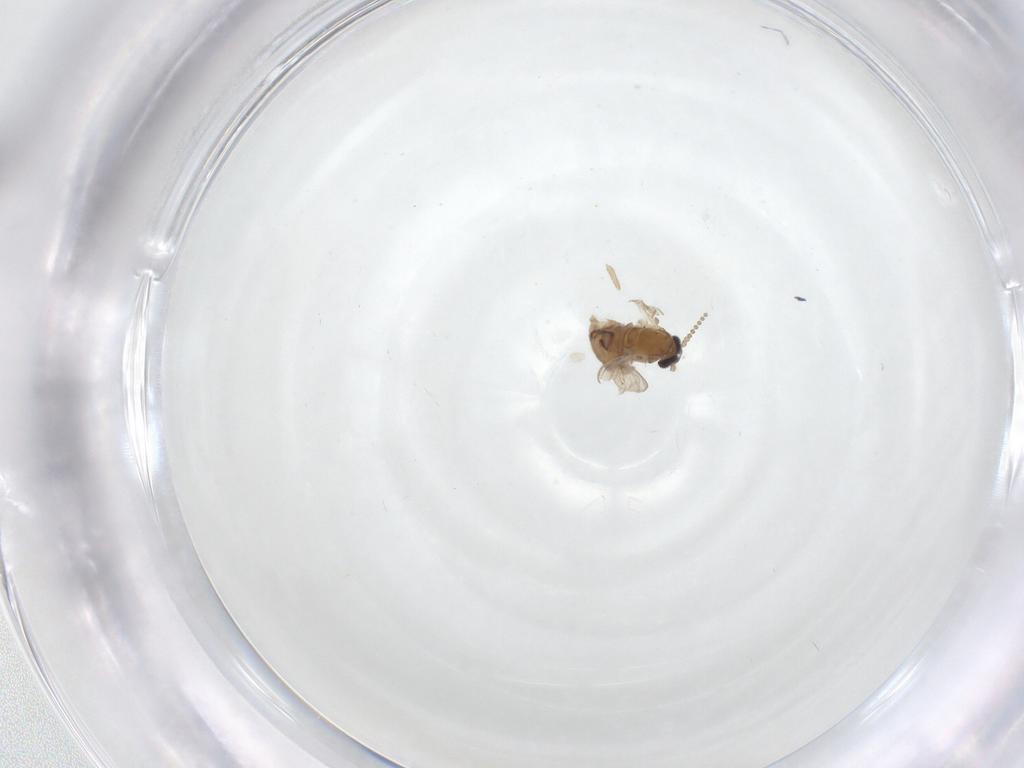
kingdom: Animalia
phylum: Arthropoda
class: Insecta
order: Diptera
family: Psychodidae
